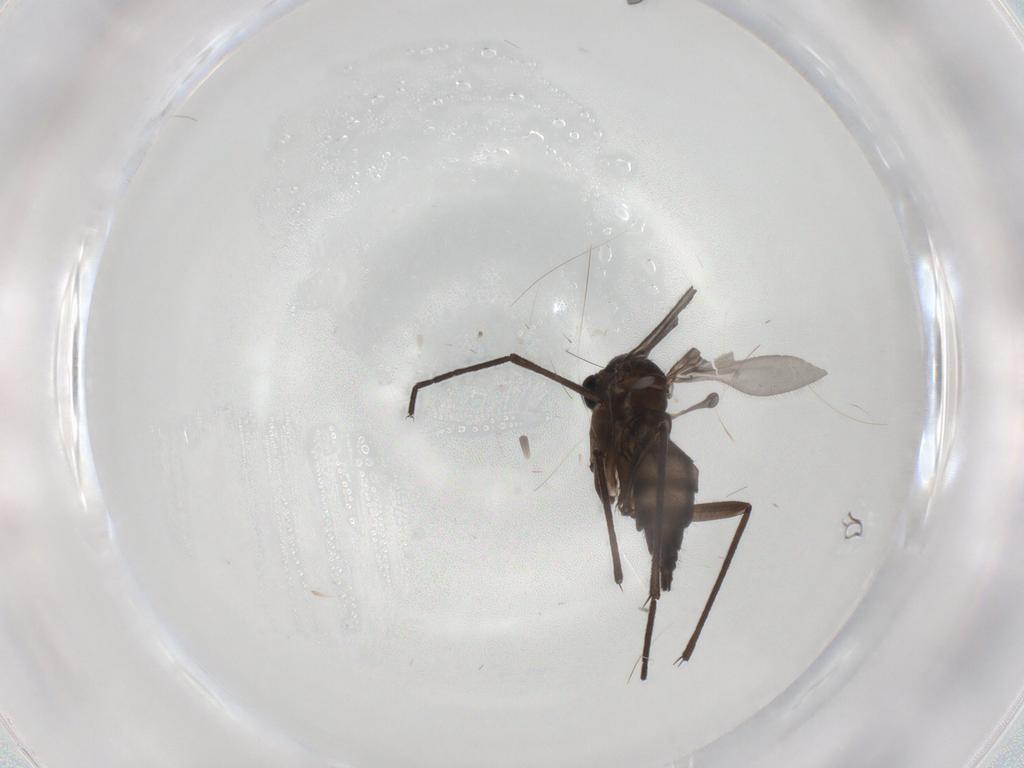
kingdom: Animalia
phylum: Arthropoda
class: Insecta
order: Diptera
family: Sciaridae
